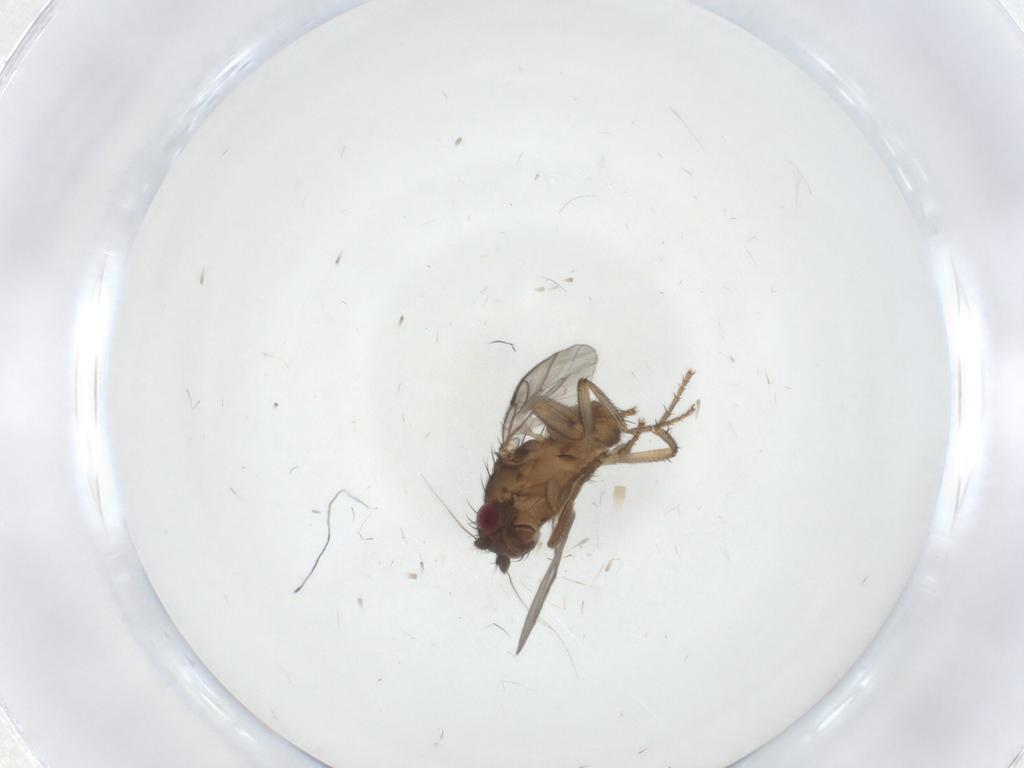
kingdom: Animalia
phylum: Arthropoda
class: Insecta
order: Diptera
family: Sphaeroceridae
